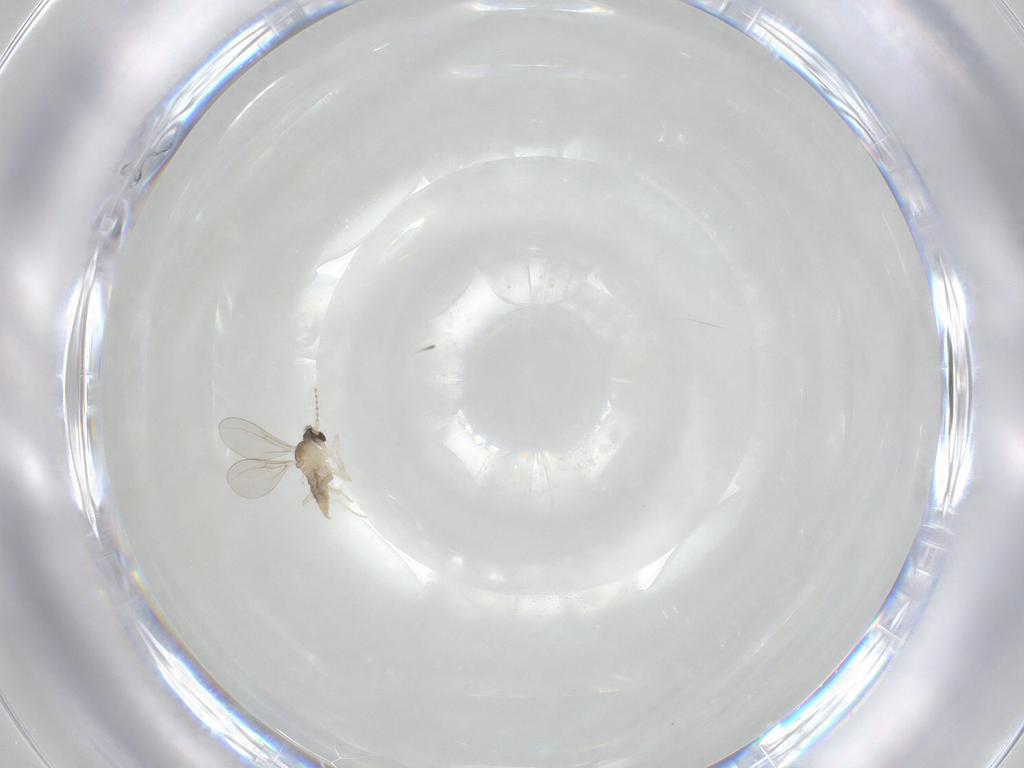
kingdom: Animalia
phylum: Arthropoda
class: Insecta
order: Diptera
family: Cecidomyiidae
